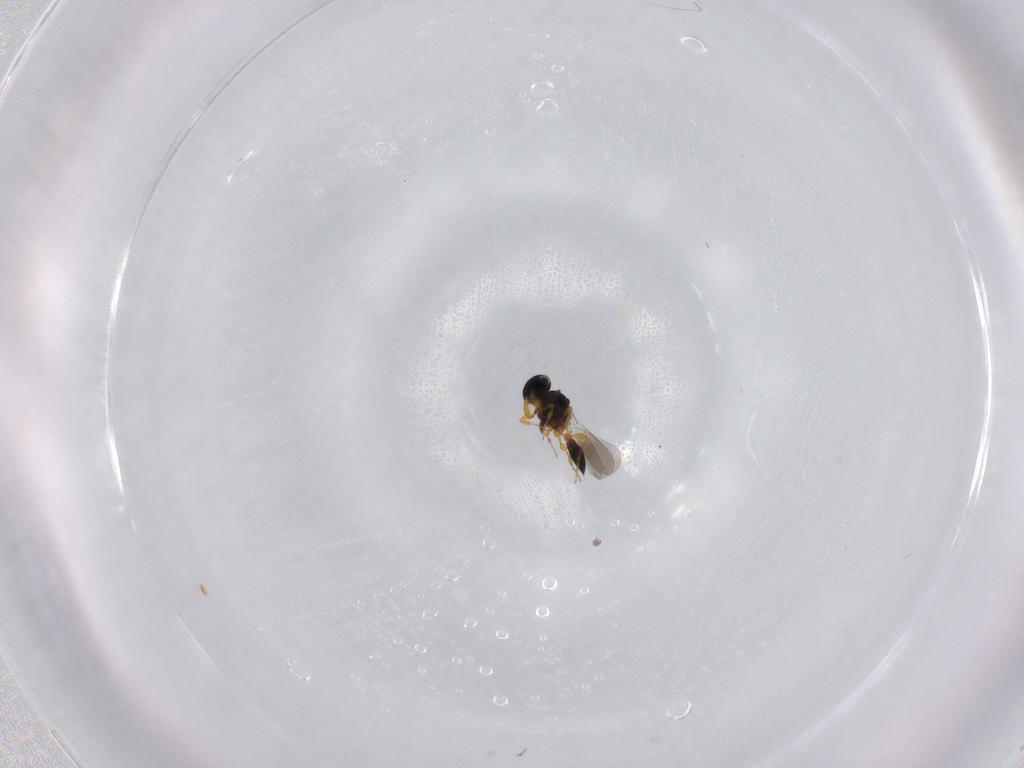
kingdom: Animalia
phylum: Arthropoda
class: Insecta
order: Hymenoptera
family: Platygastridae
